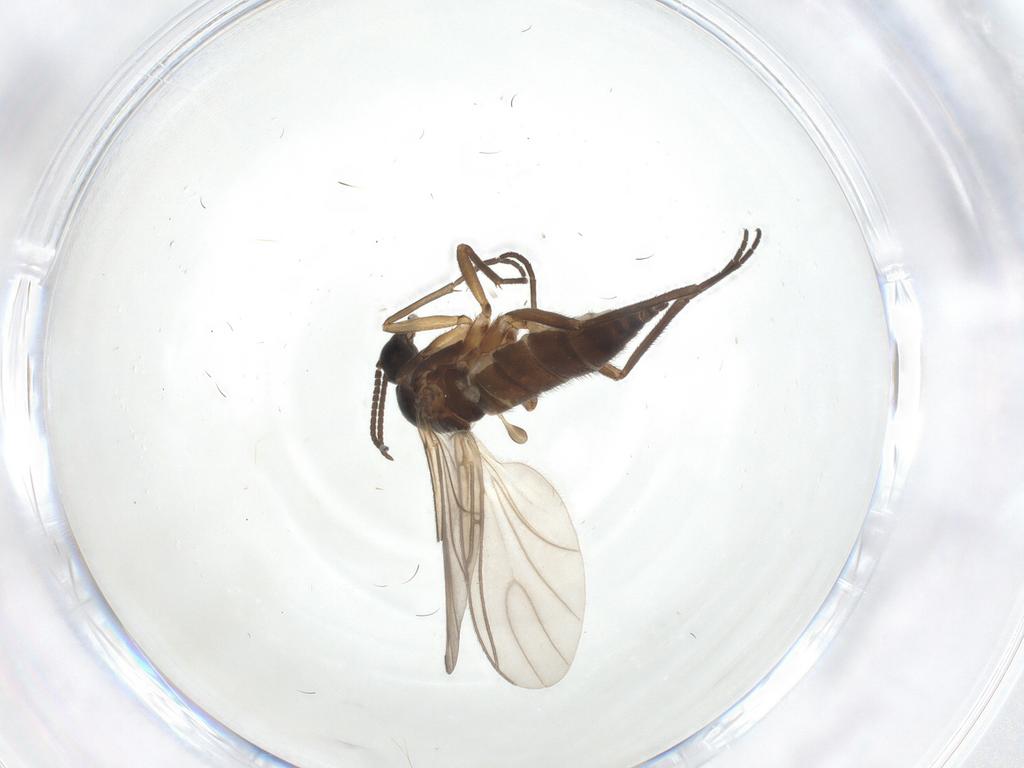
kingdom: Animalia
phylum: Arthropoda
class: Insecta
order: Diptera
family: Sciaridae
